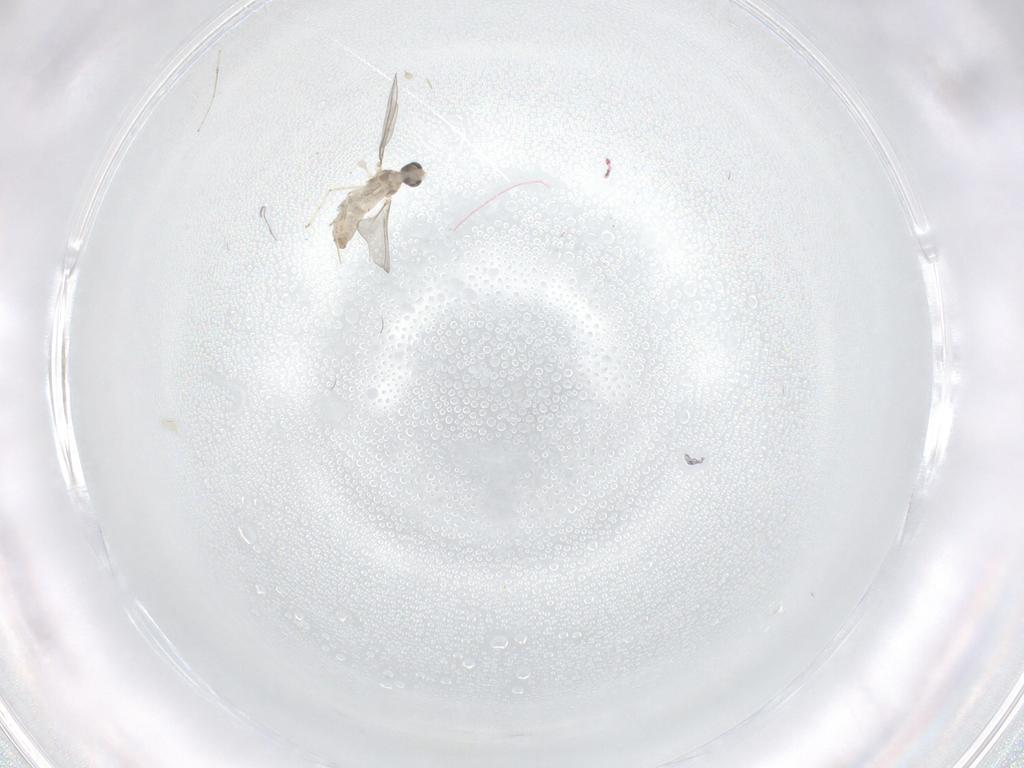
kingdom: Animalia
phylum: Arthropoda
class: Insecta
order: Diptera
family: Cecidomyiidae
